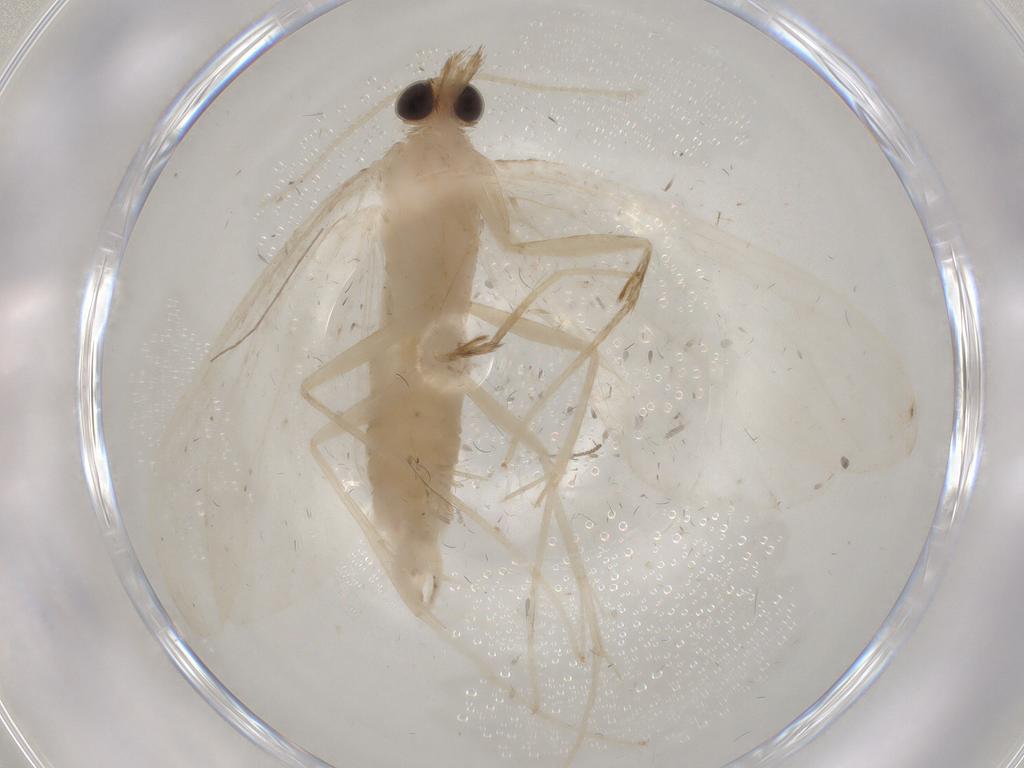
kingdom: Animalia
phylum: Arthropoda
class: Insecta
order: Lepidoptera
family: Crambidae
